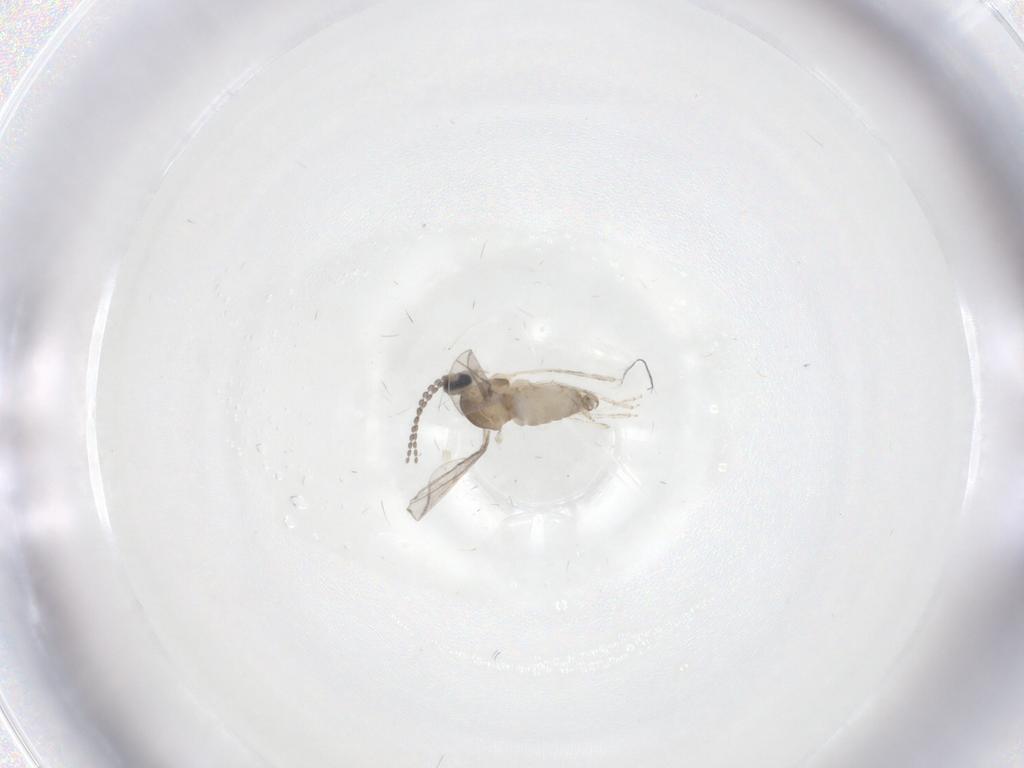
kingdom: Animalia
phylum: Arthropoda
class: Insecta
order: Diptera
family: Cecidomyiidae
